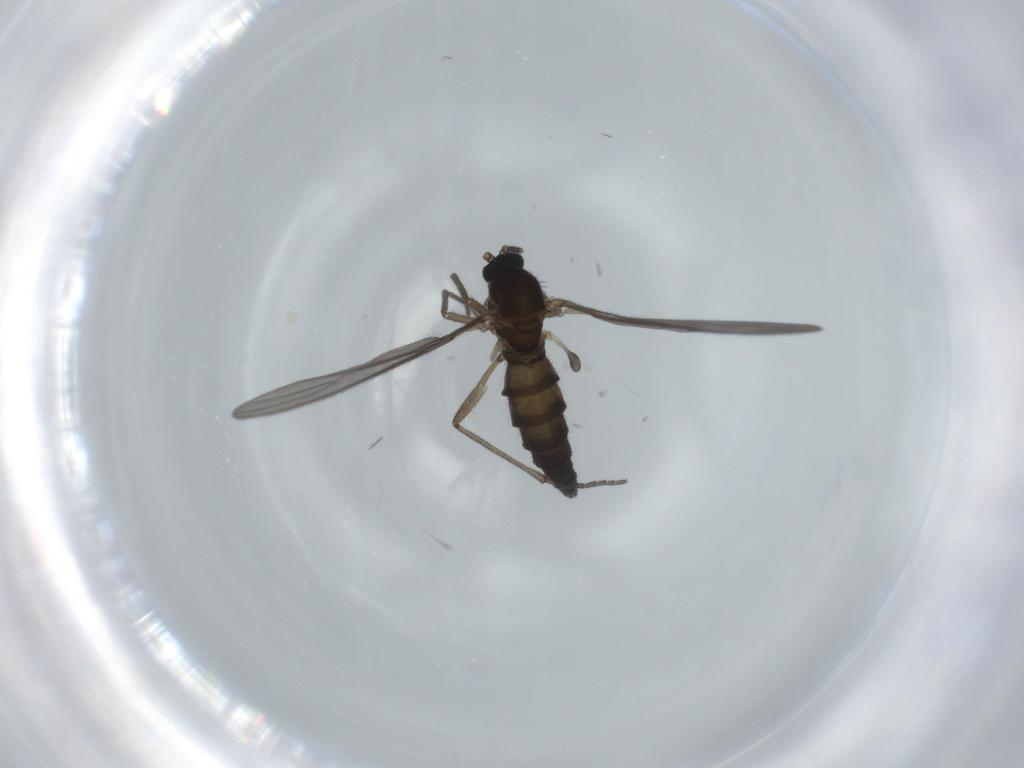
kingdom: Animalia
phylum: Arthropoda
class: Insecta
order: Diptera
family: Sciaridae
